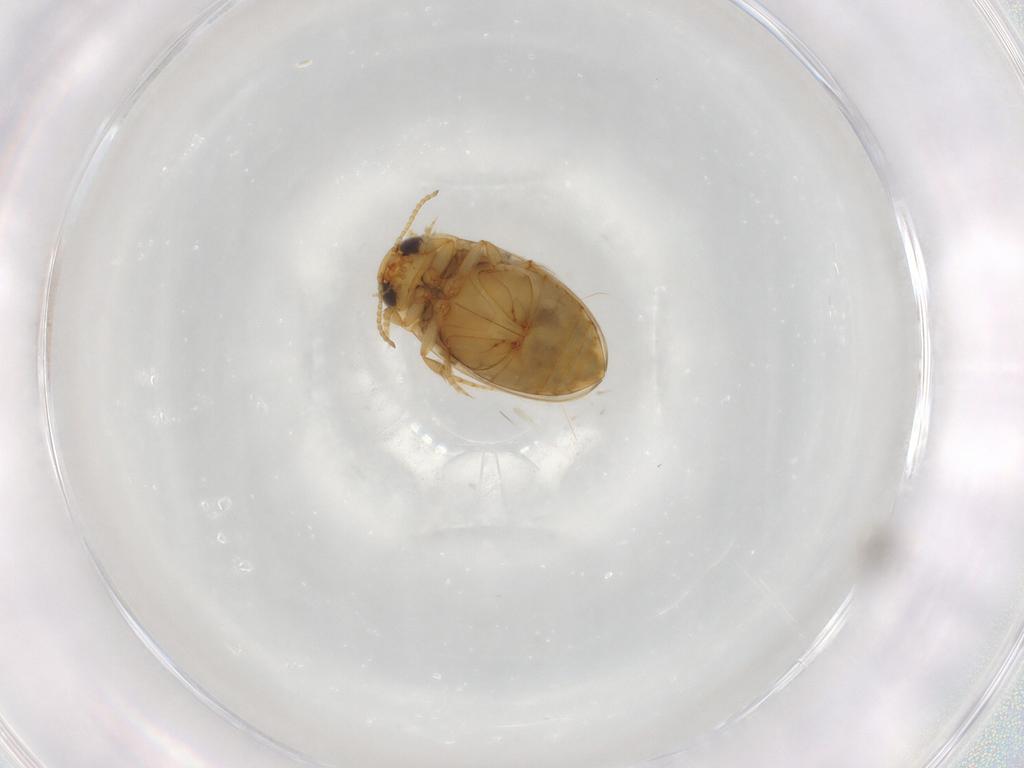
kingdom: Animalia
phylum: Arthropoda
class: Insecta
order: Coleoptera
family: Dytiscidae
